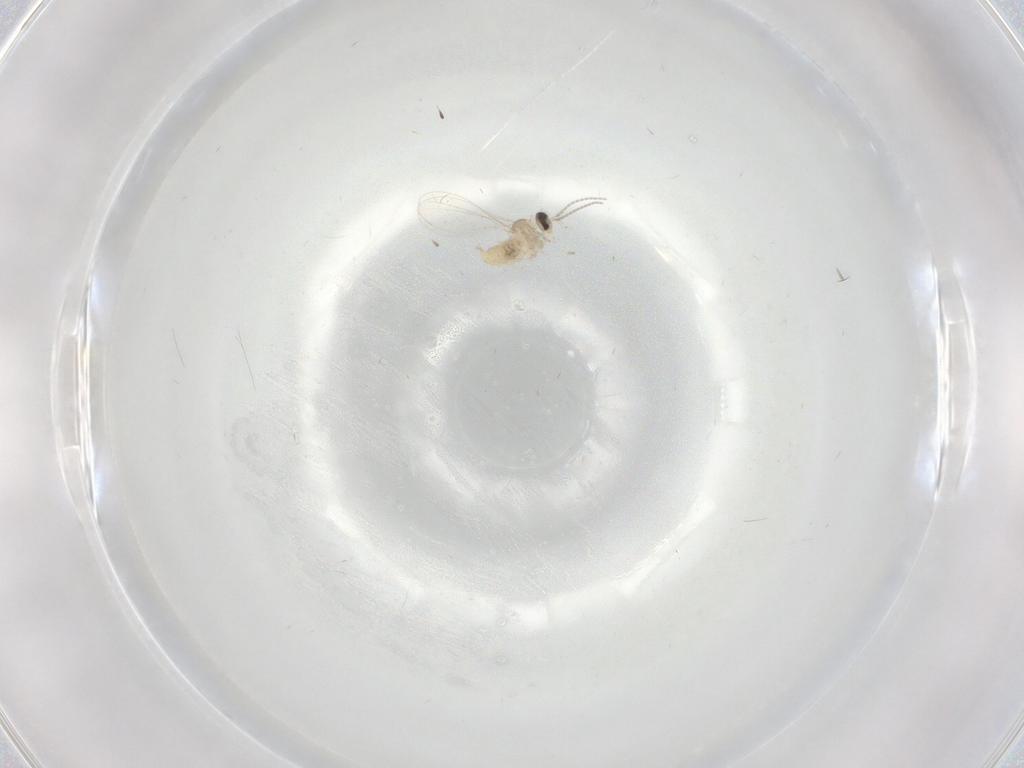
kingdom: Animalia
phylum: Arthropoda
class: Insecta
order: Diptera
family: Cecidomyiidae
